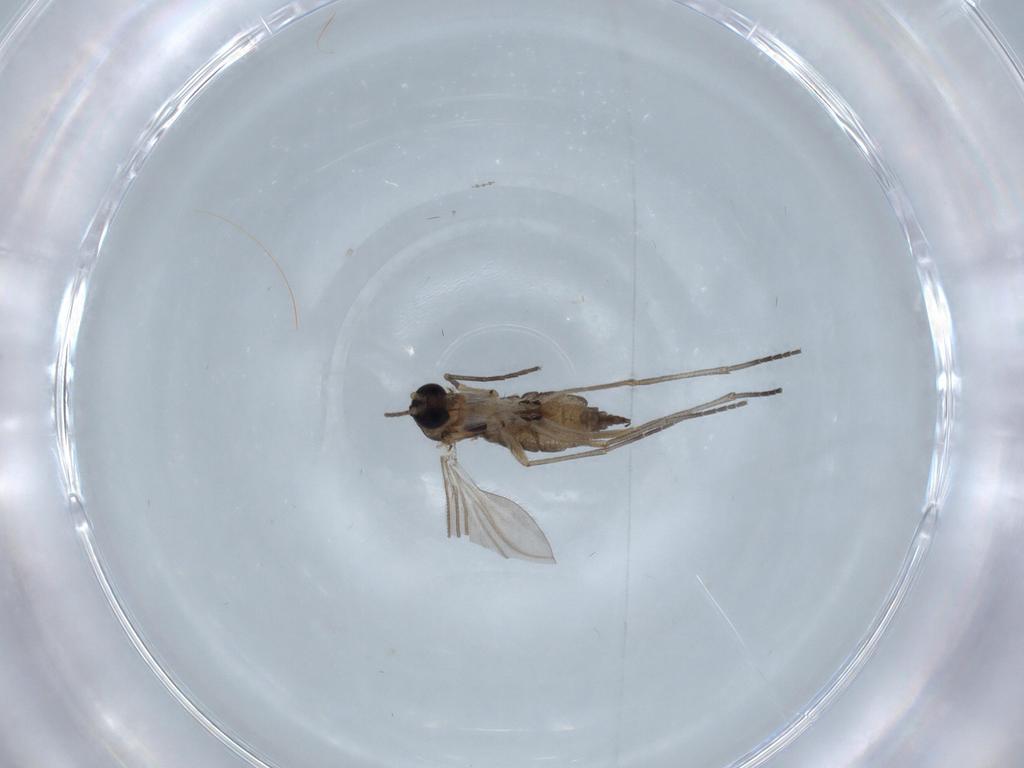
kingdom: Animalia
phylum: Arthropoda
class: Insecta
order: Diptera
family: Sciaridae
